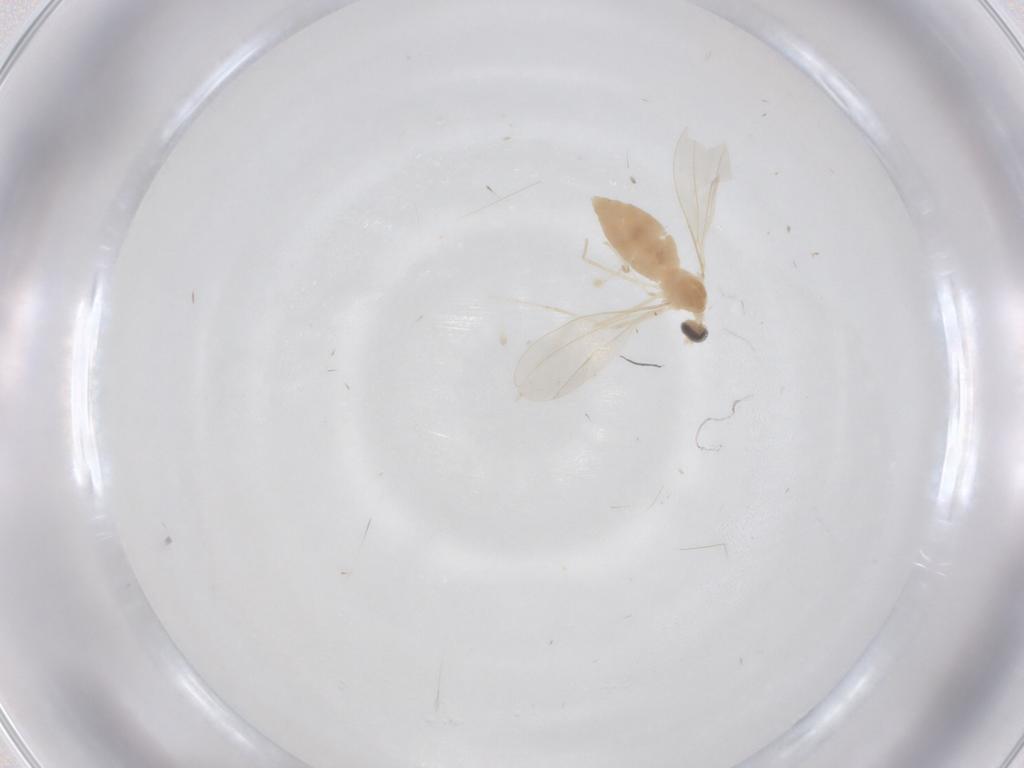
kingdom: Animalia
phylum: Arthropoda
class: Insecta
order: Diptera
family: Cecidomyiidae
